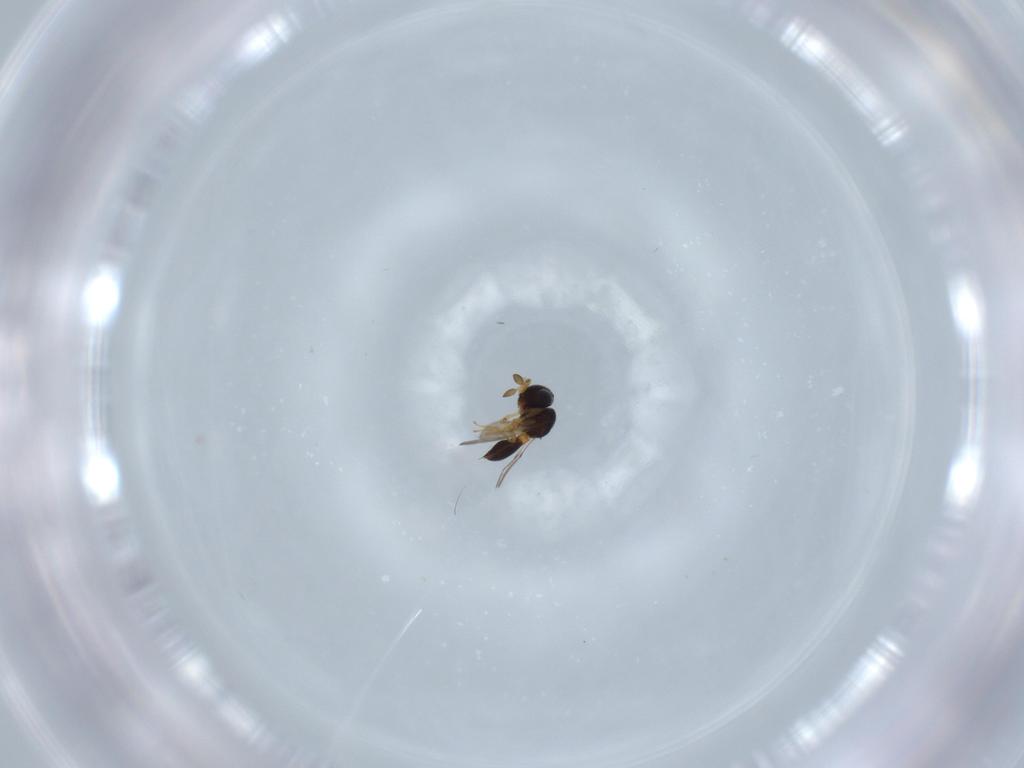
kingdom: Animalia
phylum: Arthropoda
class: Insecta
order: Hymenoptera
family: Scelionidae
